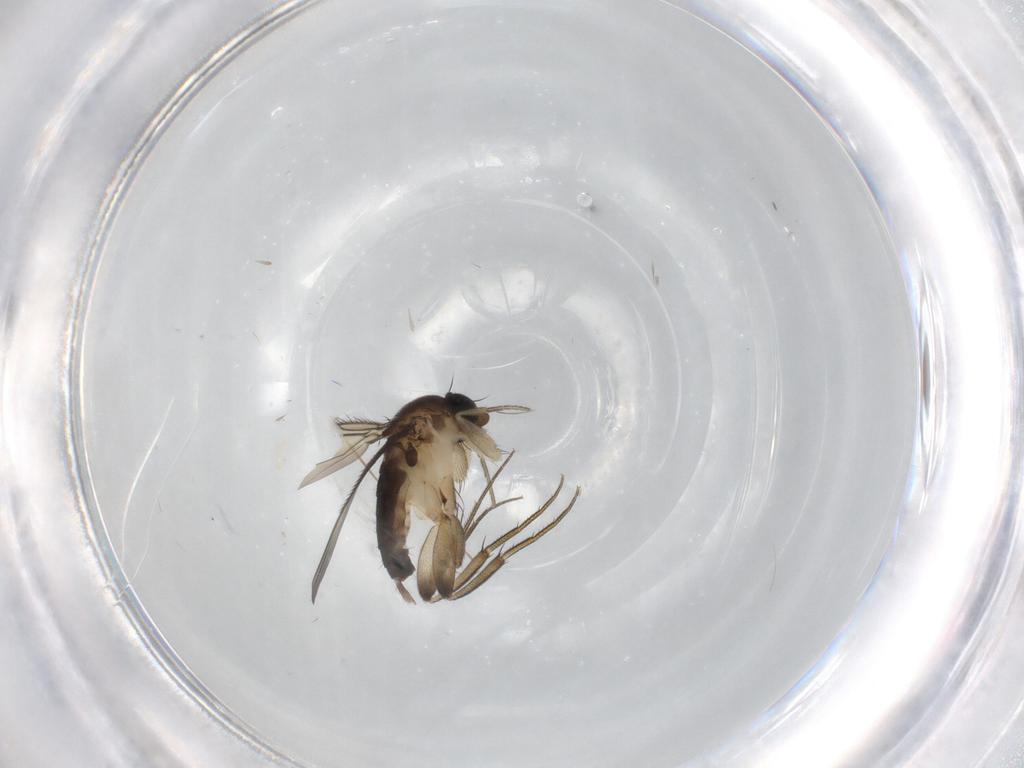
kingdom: Animalia
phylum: Arthropoda
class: Insecta
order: Diptera
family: Phoridae
